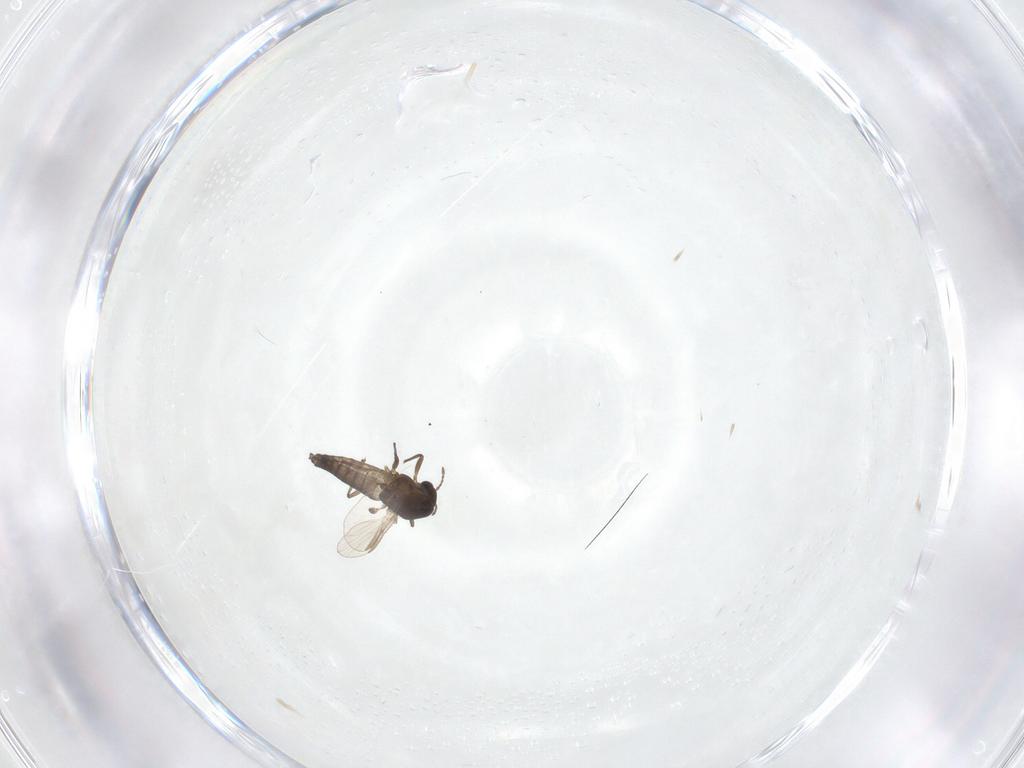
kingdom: Animalia
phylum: Arthropoda
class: Insecta
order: Diptera
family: Chironomidae
